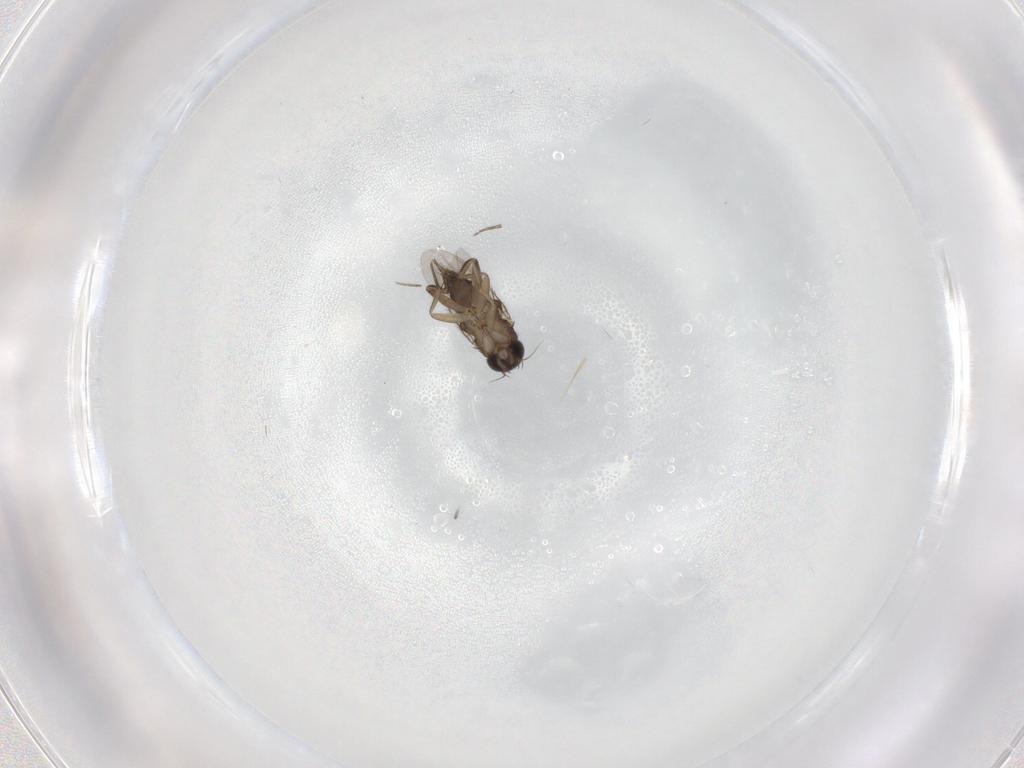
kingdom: Animalia
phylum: Arthropoda
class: Insecta
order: Diptera
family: Phoridae
